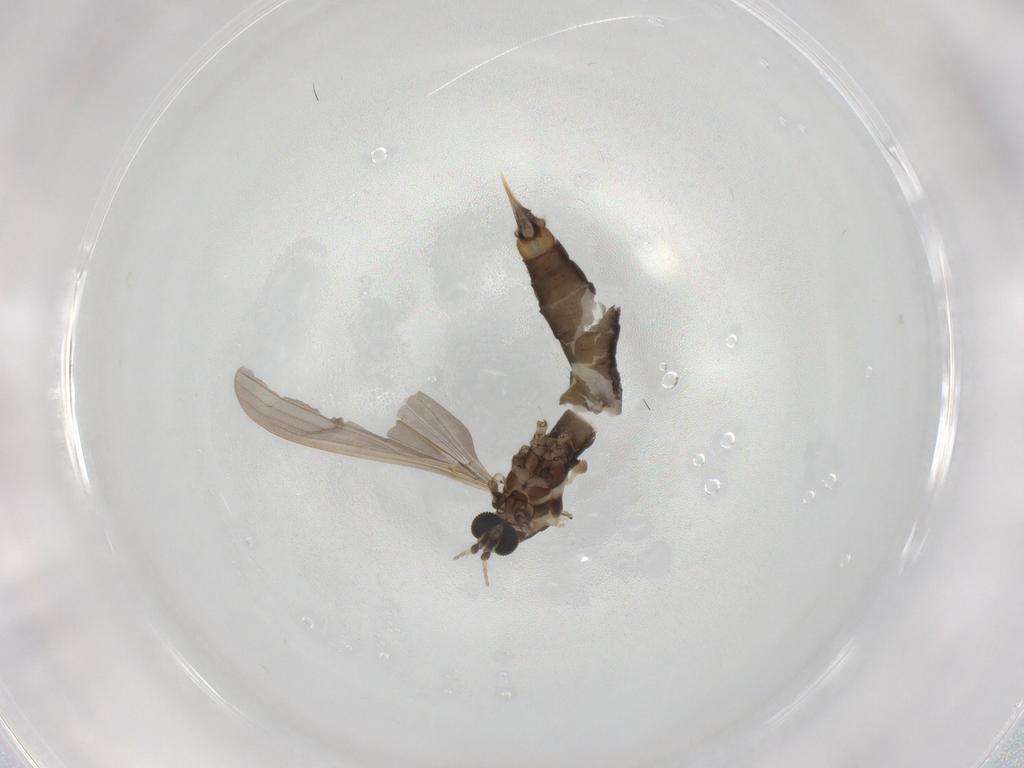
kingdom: Animalia
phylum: Arthropoda
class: Insecta
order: Diptera
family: Limoniidae
